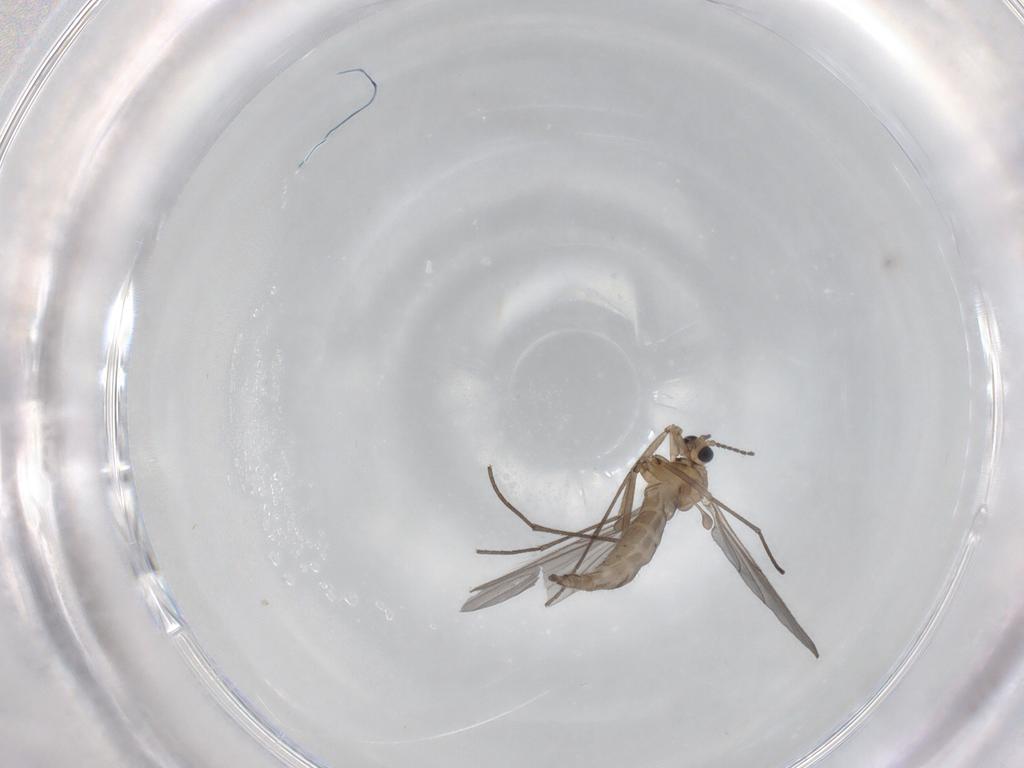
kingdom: Animalia
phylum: Arthropoda
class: Insecta
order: Diptera
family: Sciaridae
